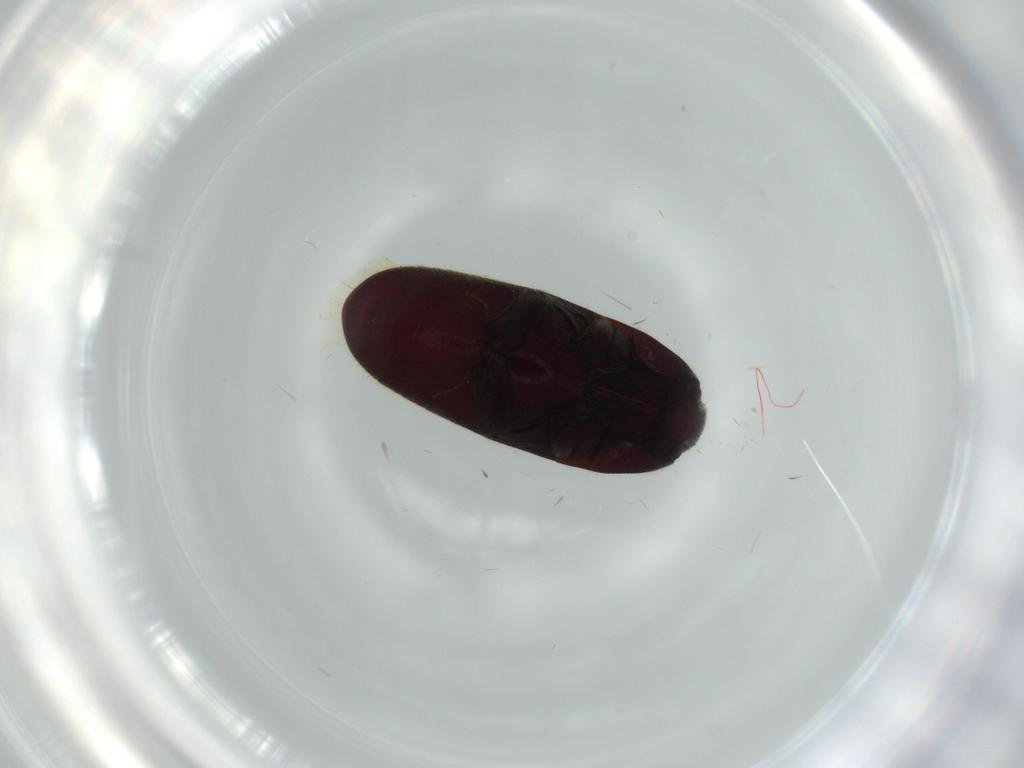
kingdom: Animalia
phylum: Arthropoda
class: Insecta
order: Coleoptera
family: Throscidae
